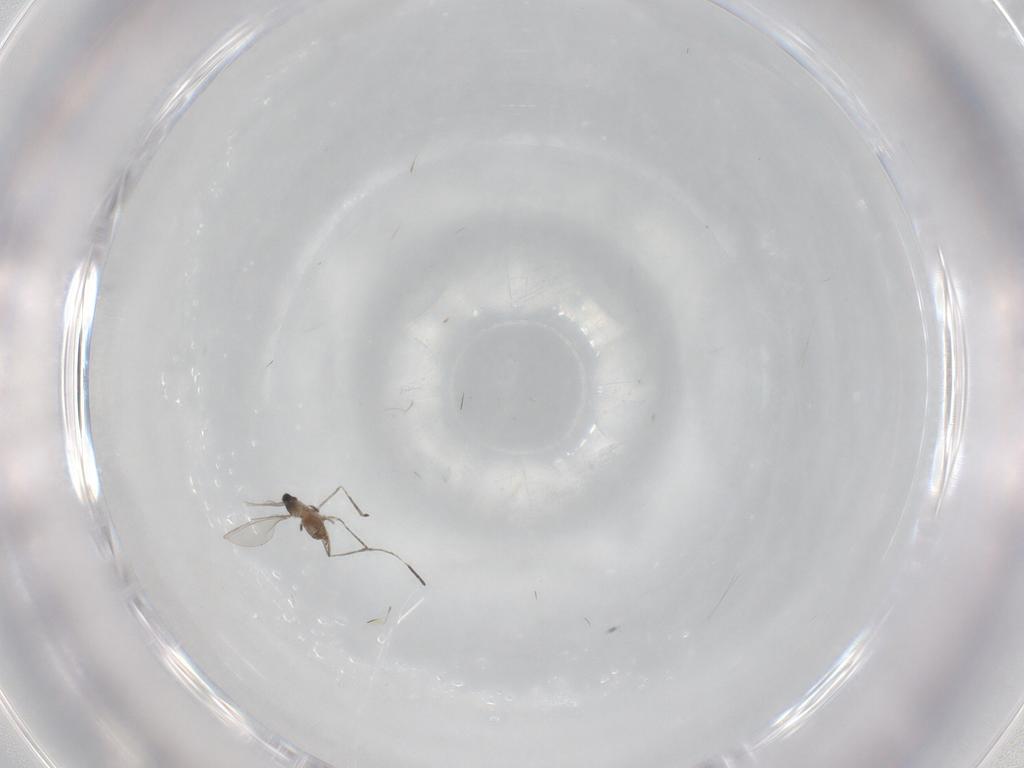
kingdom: Animalia
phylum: Arthropoda
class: Insecta
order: Diptera
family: Cecidomyiidae
